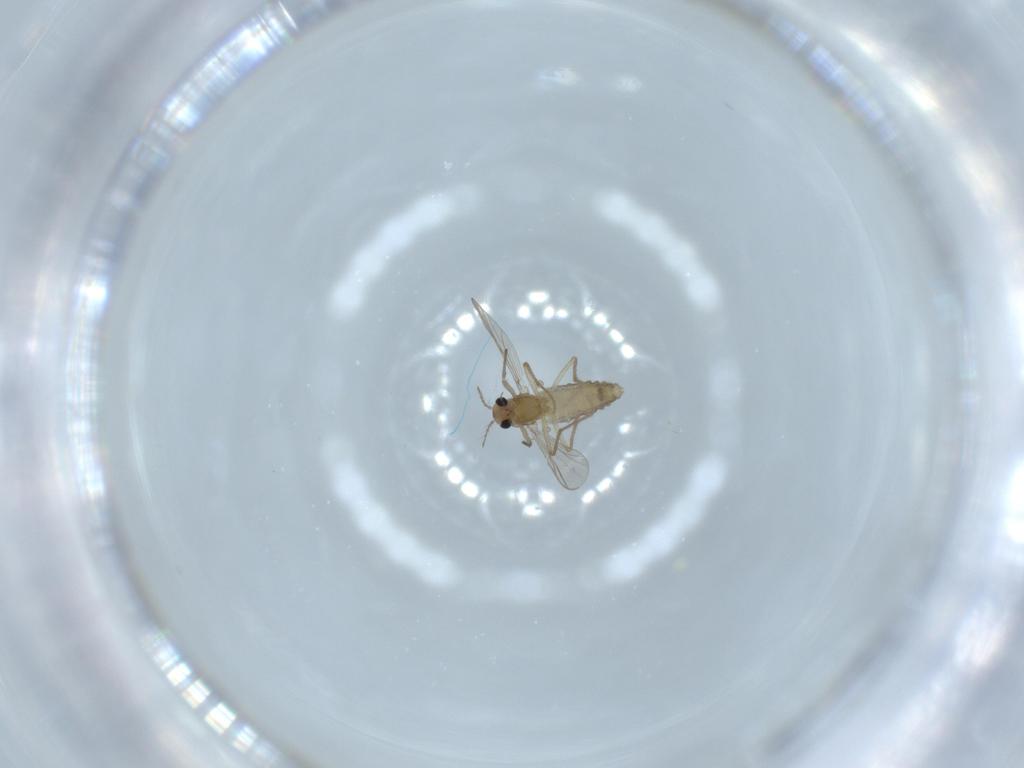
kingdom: Animalia
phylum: Arthropoda
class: Insecta
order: Diptera
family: Chironomidae
